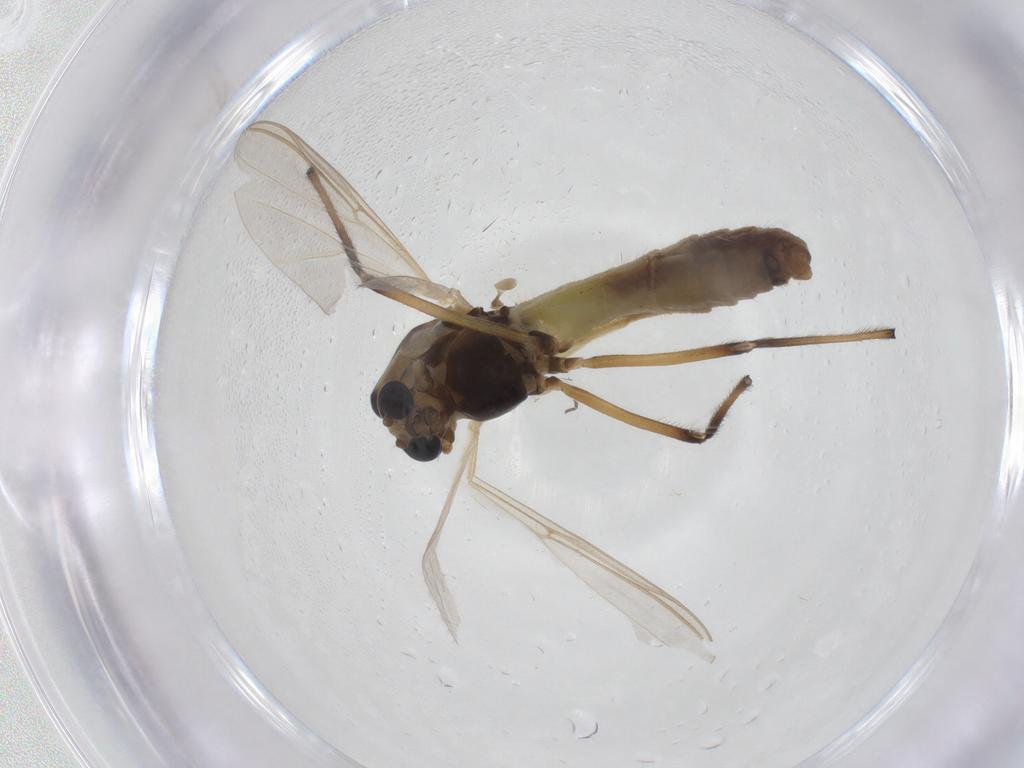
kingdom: Animalia
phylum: Arthropoda
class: Insecta
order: Diptera
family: Chironomidae
